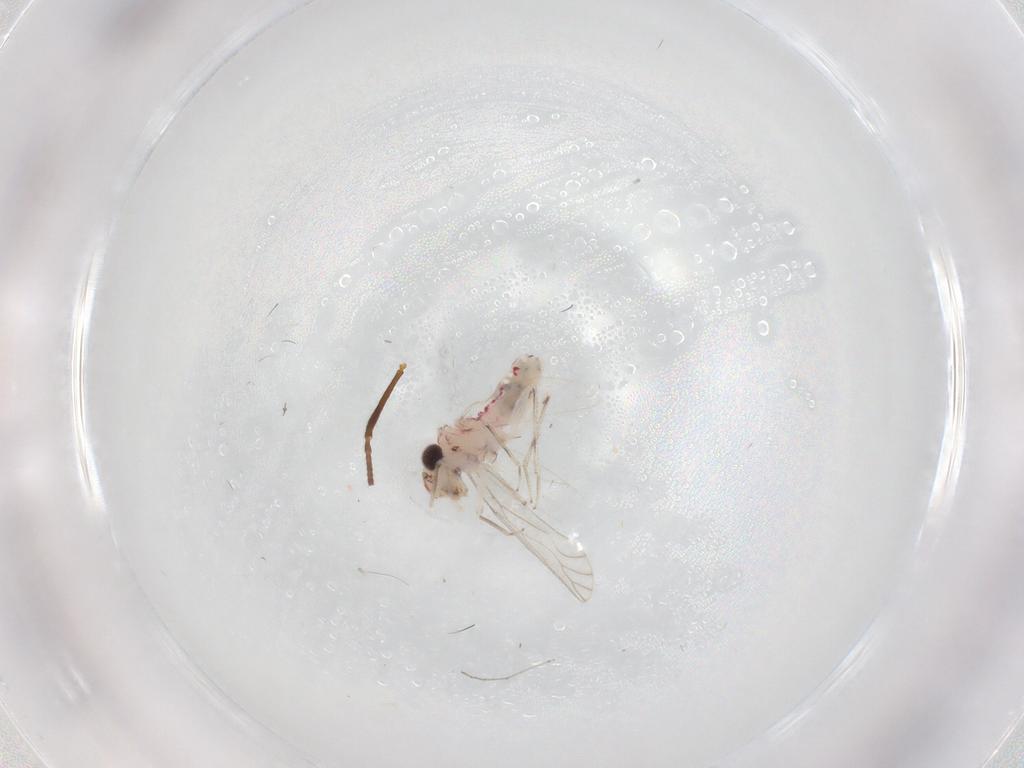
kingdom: Animalia
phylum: Arthropoda
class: Insecta
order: Psocodea
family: Caeciliusidae
